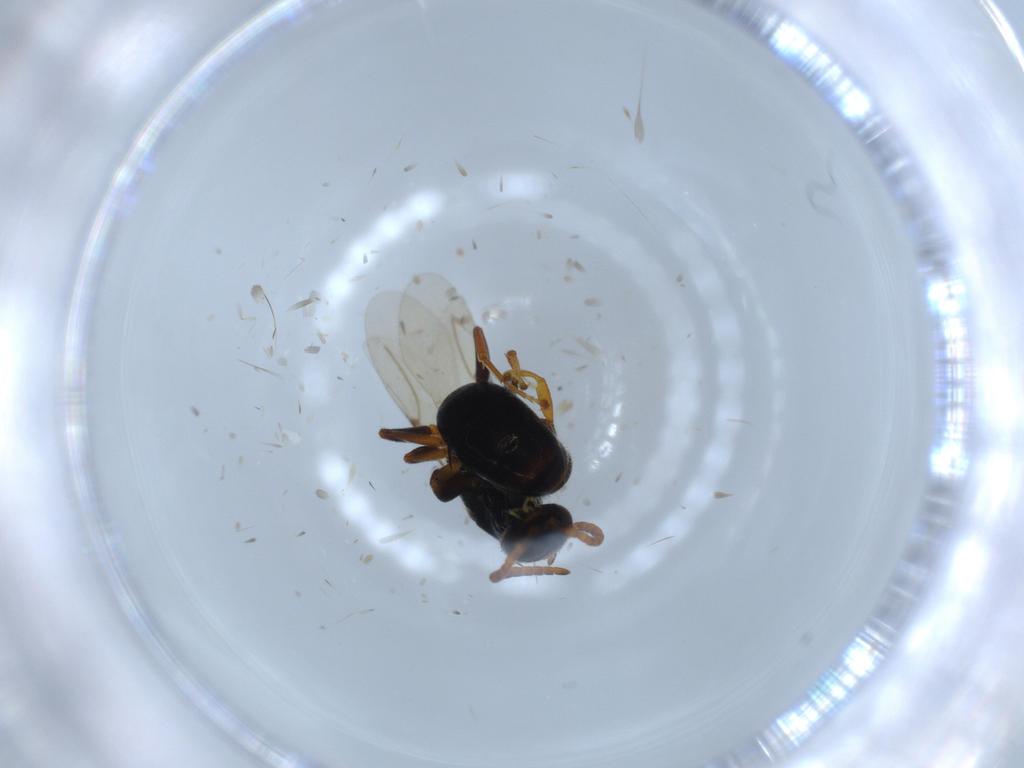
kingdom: Animalia
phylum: Arthropoda
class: Insecta
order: Hymenoptera
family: Bethylidae
